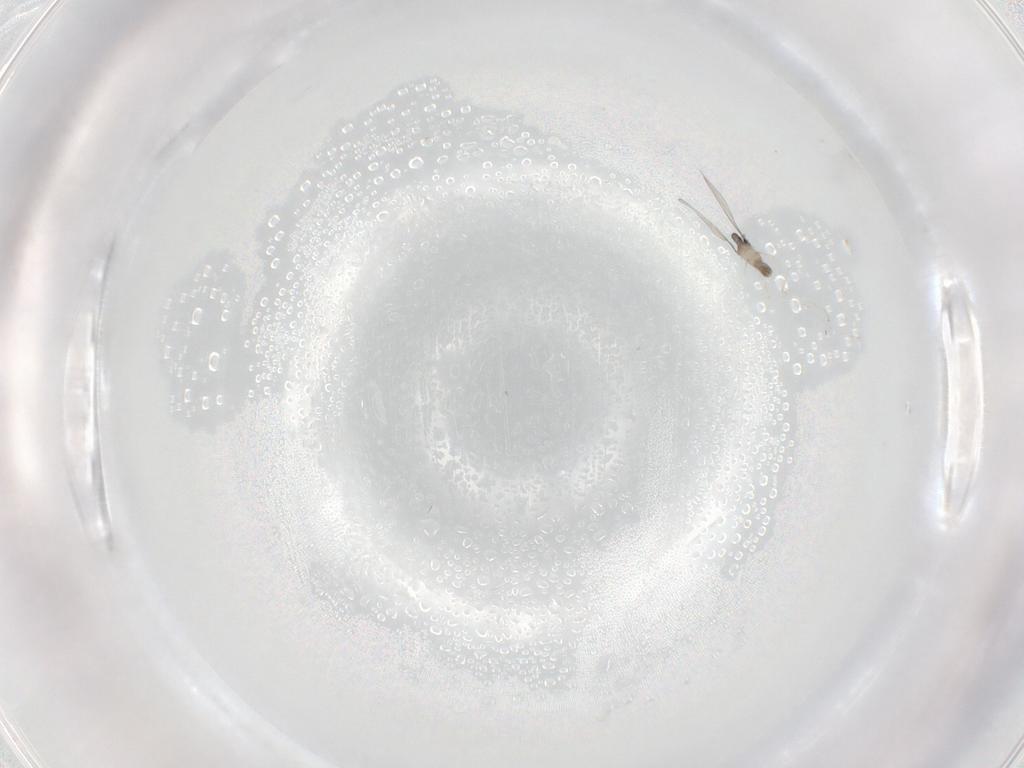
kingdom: Animalia
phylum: Arthropoda
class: Insecta
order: Diptera
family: Cecidomyiidae
